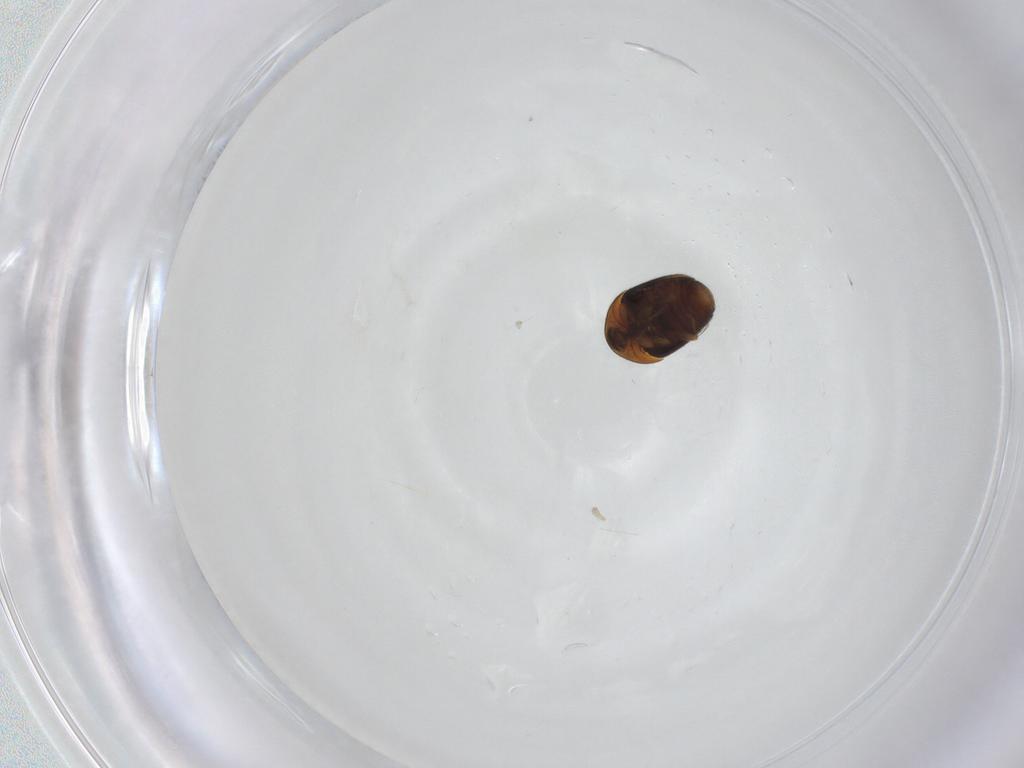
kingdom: Animalia
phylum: Arthropoda
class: Insecta
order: Coleoptera
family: Corylophidae
